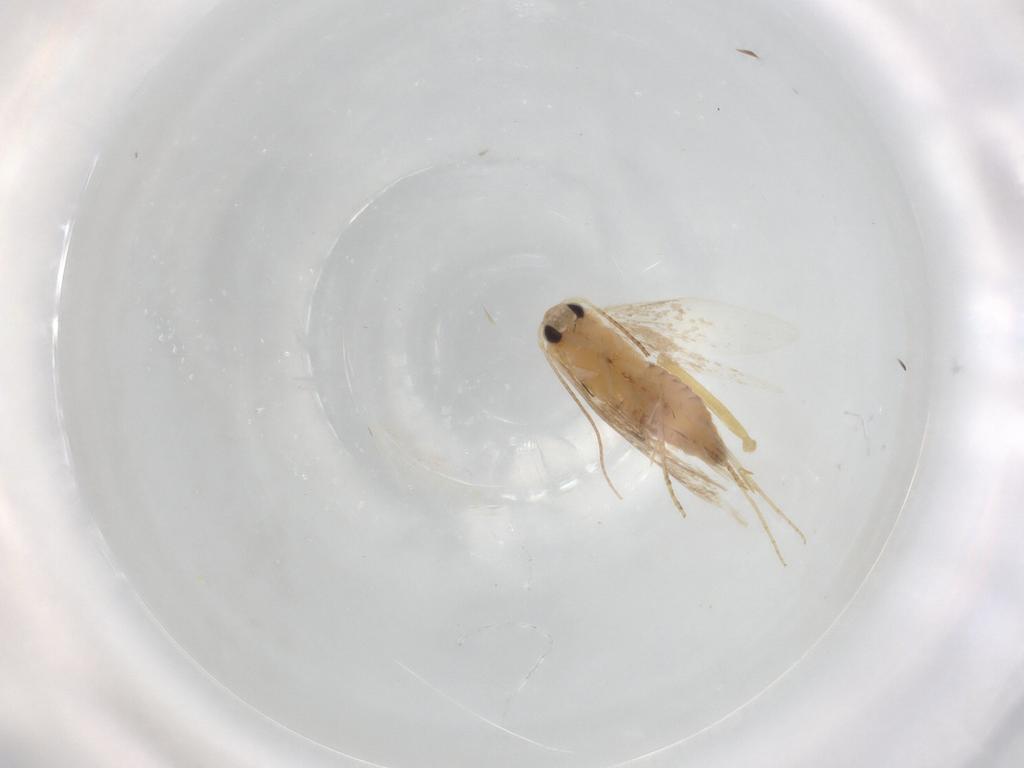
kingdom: Animalia
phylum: Arthropoda
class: Insecta
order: Lepidoptera
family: Bucculatricidae
